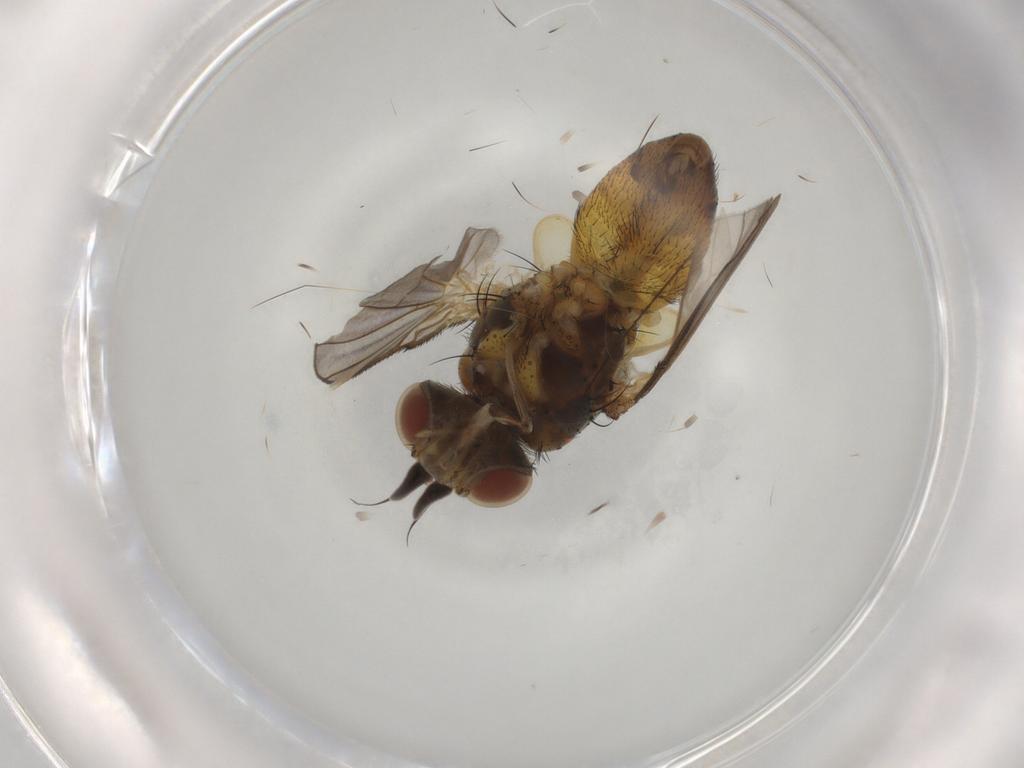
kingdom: Animalia
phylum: Arthropoda
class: Insecta
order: Diptera
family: Tachinidae
